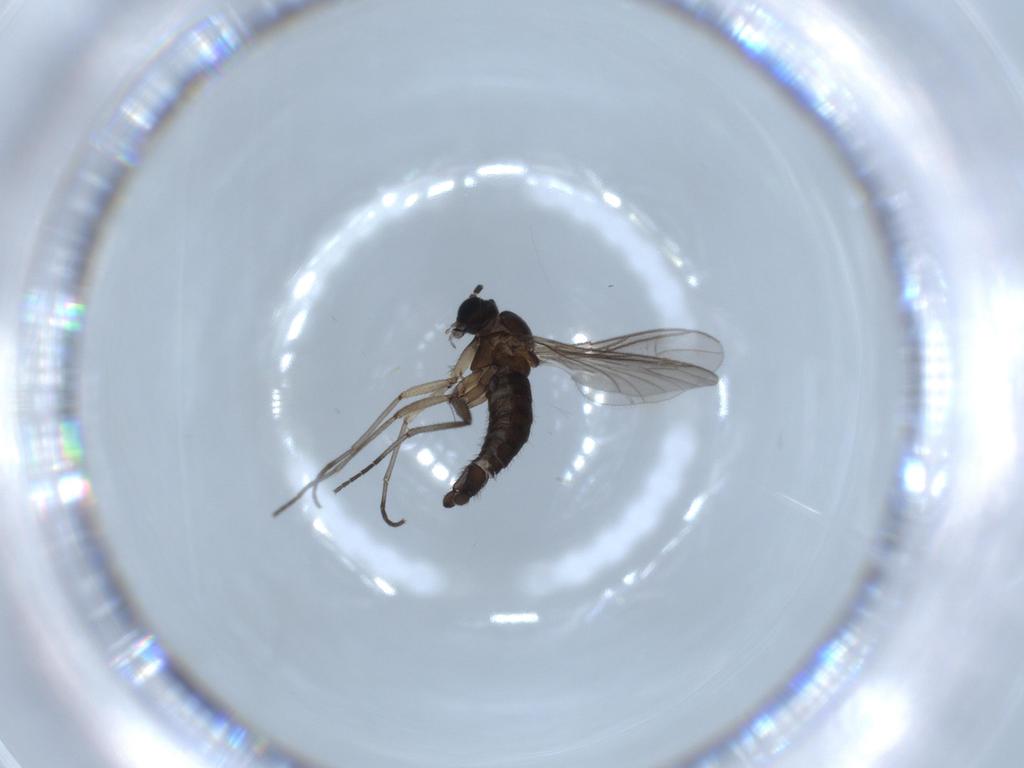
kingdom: Animalia
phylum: Arthropoda
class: Insecta
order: Diptera
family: Sciaridae
